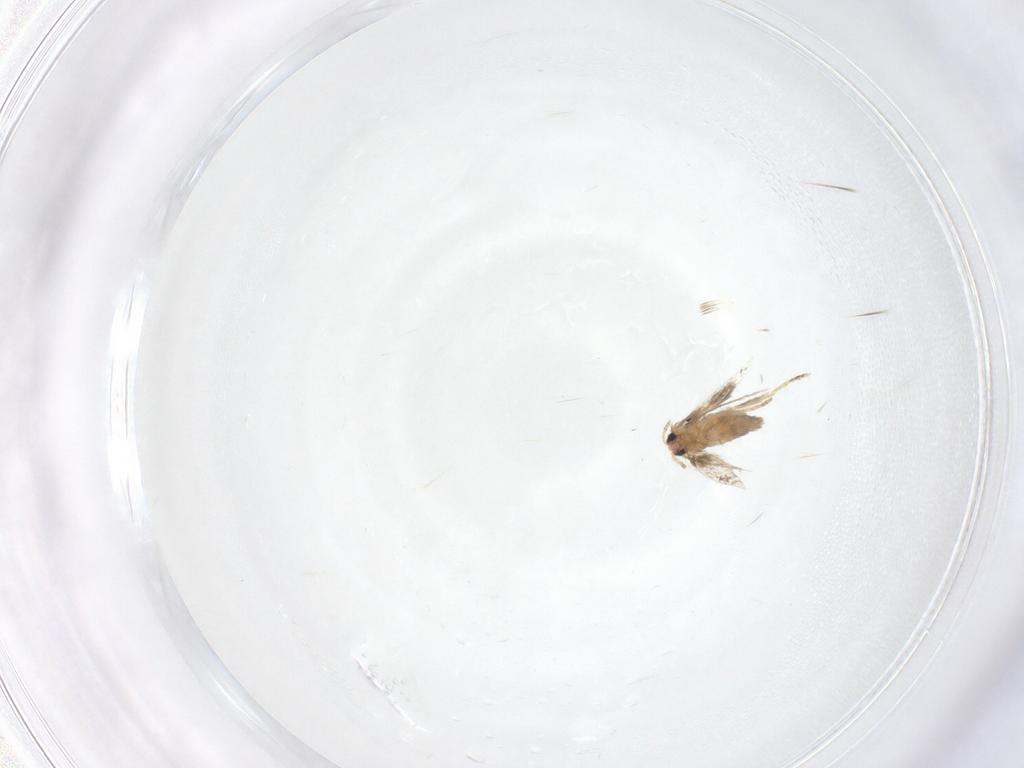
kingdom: Animalia
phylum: Arthropoda
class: Insecta
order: Lepidoptera
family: Nepticulidae
